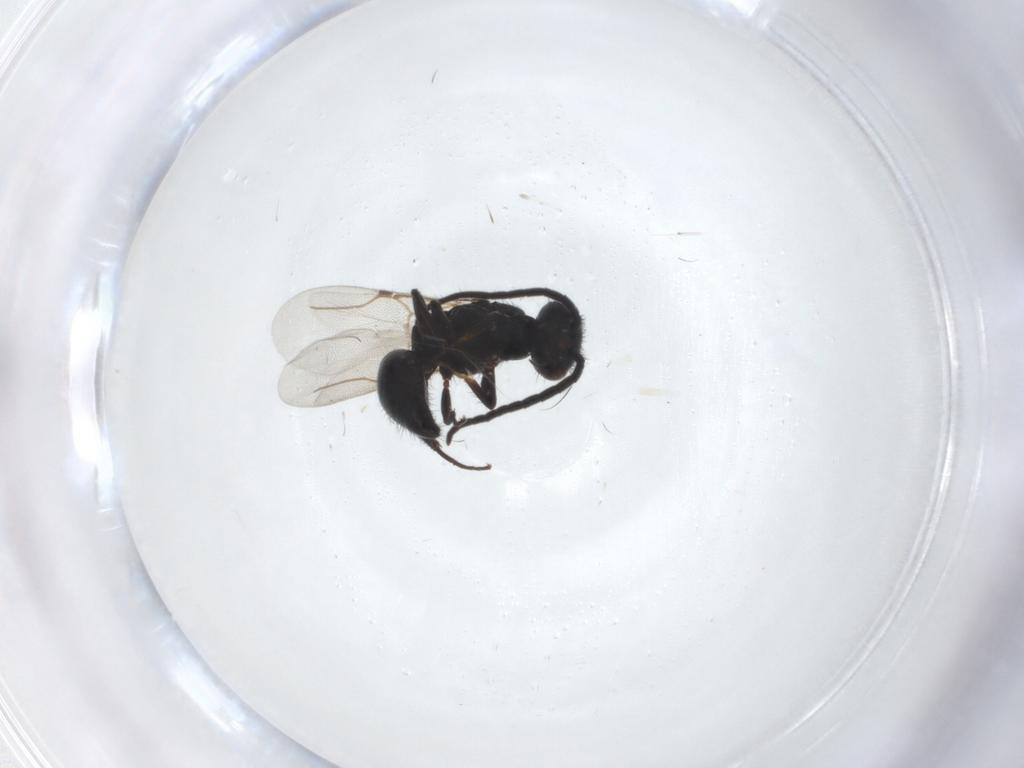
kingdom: Animalia
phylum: Arthropoda
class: Insecta
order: Hymenoptera
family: Bethylidae
